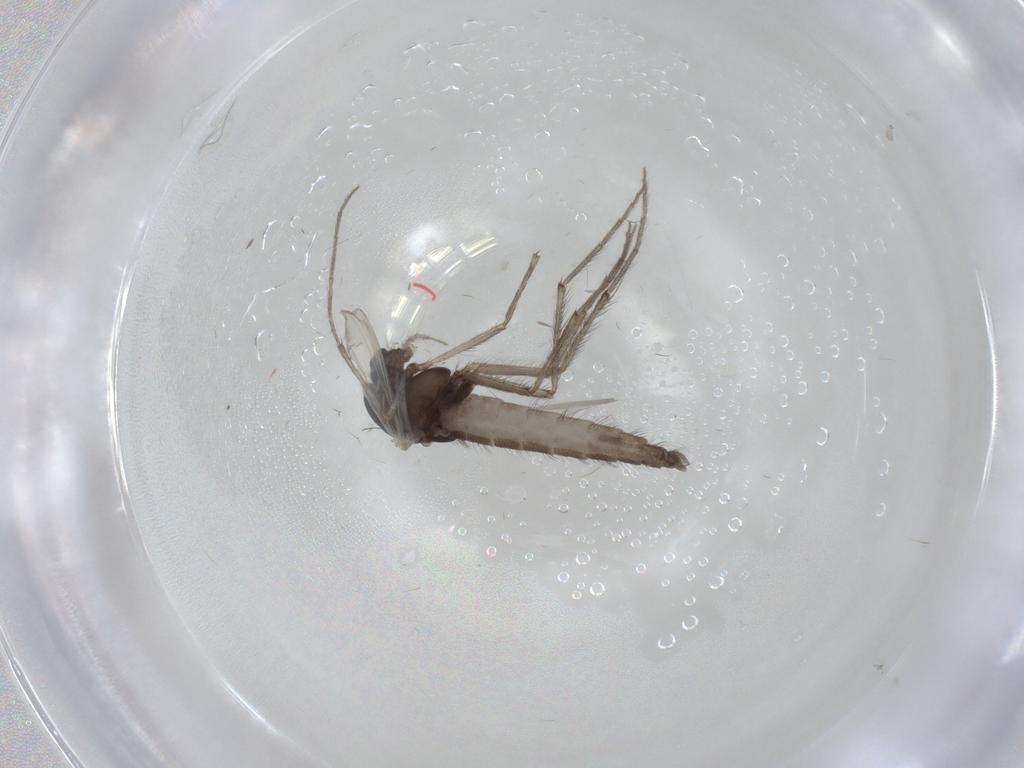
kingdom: Animalia
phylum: Arthropoda
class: Insecta
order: Diptera
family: Chironomidae
